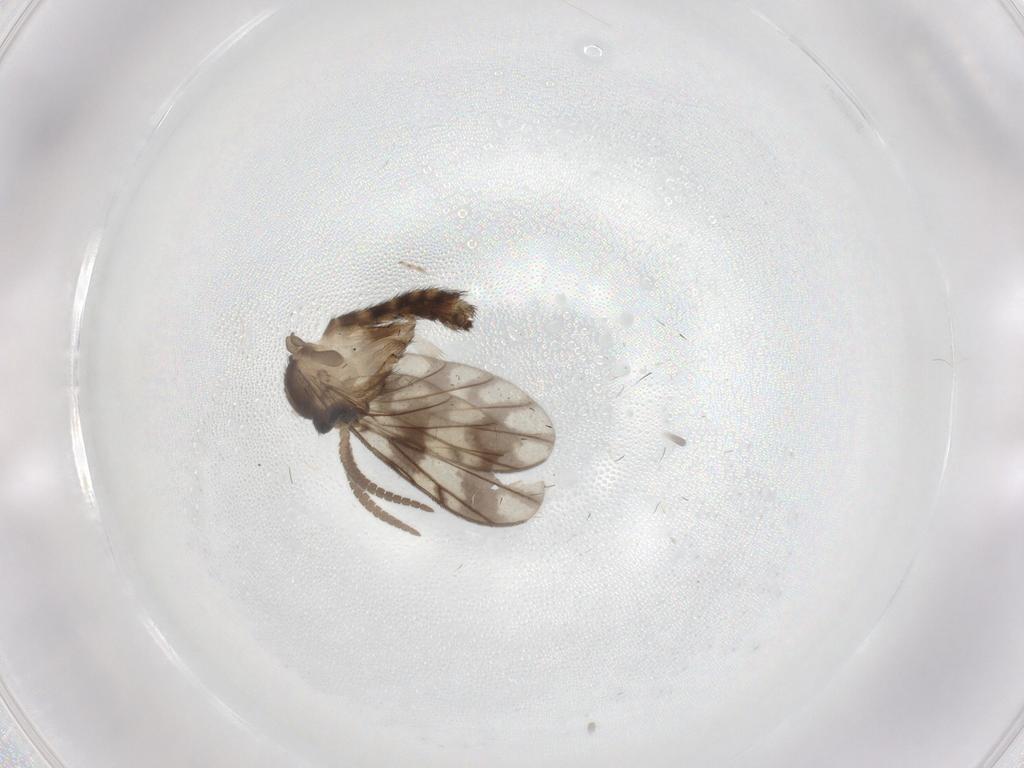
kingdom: Animalia
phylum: Arthropoda
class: Insecta
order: Diptera
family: Keroplatidae
